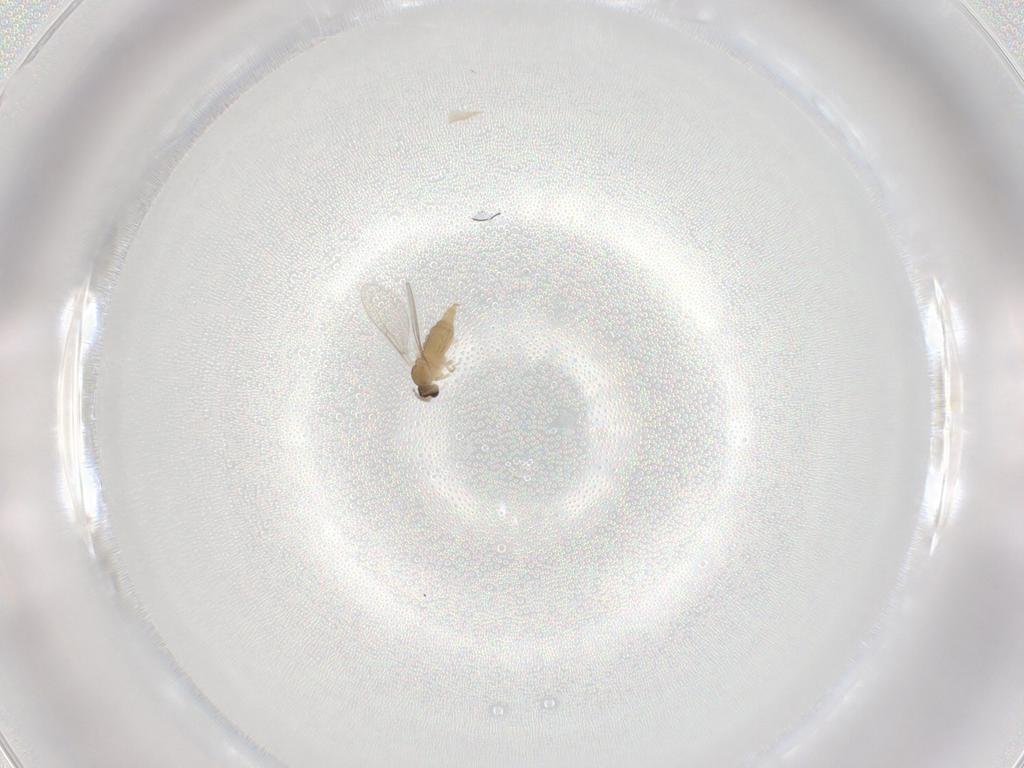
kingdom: Animalia
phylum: Arthropoda
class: Insecta
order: Diptera
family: Cecidomyiidae
